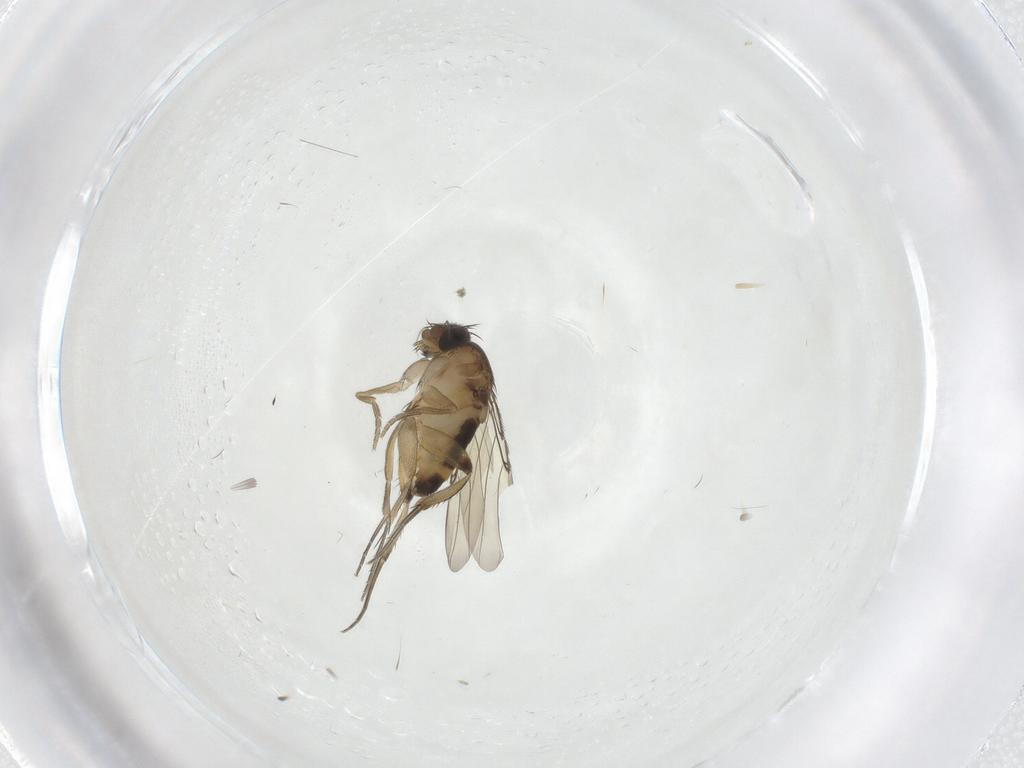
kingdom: Animalia
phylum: Arthropoda
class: Insecta
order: Diptera
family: Phoridae
